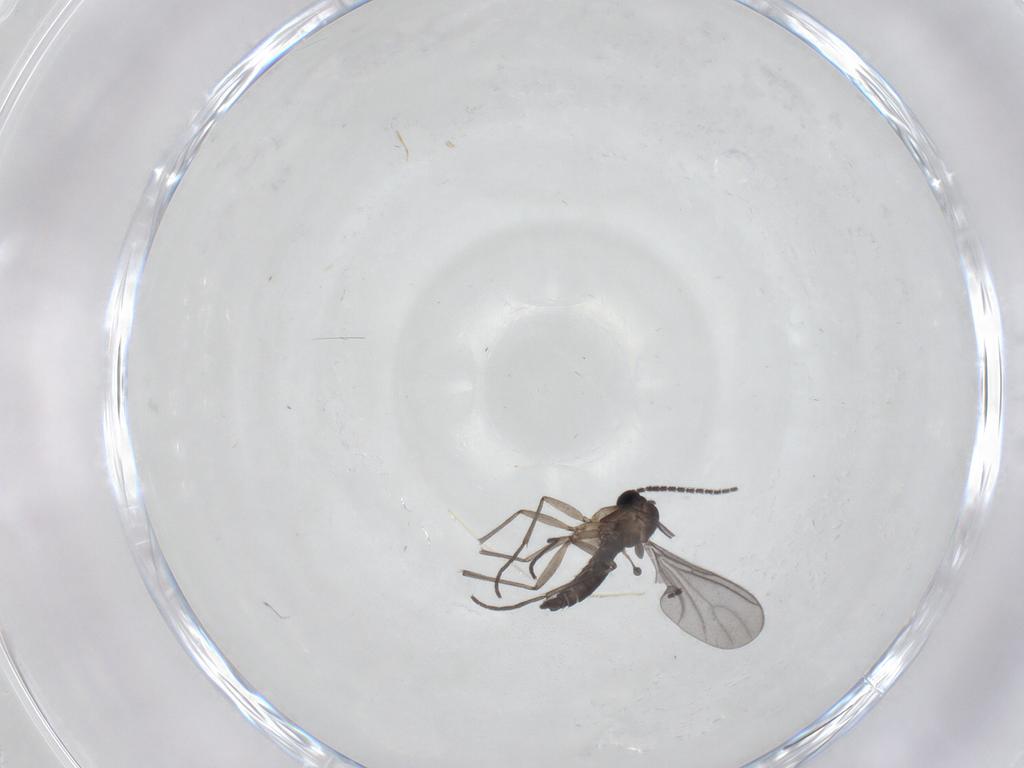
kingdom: Animalia
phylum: Arthropoda
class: Insecta
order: Diptera
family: Sciaridae
